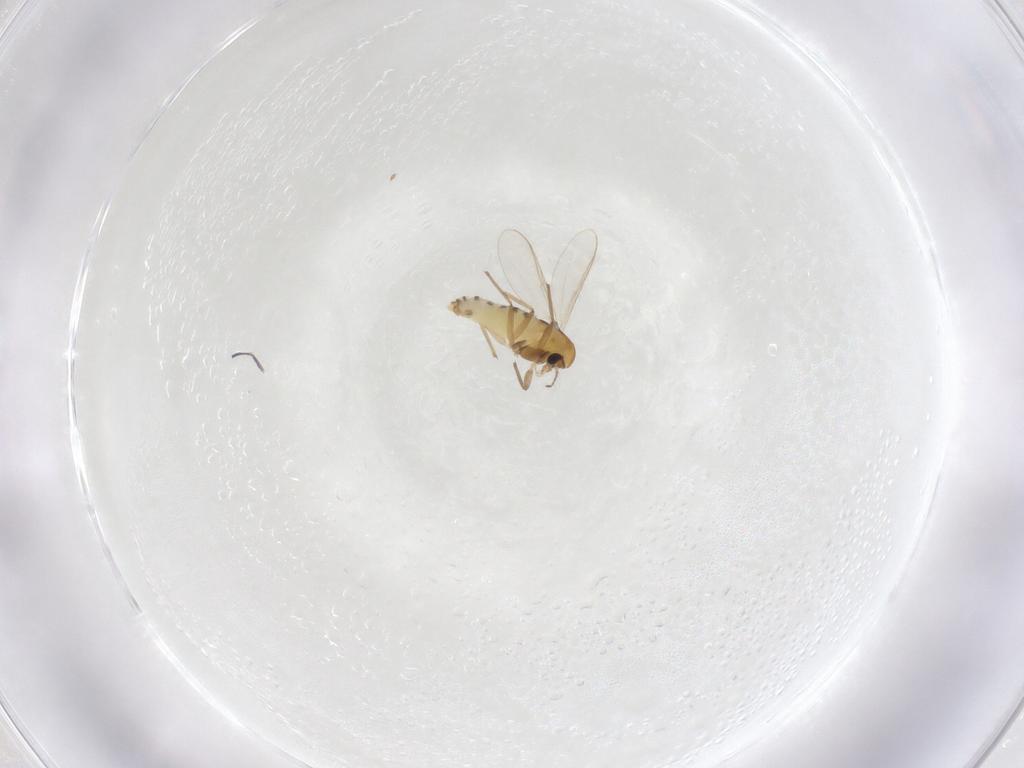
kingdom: Animalia
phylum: Arthropoda
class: Insecta
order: Diptera
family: Chironomidae
